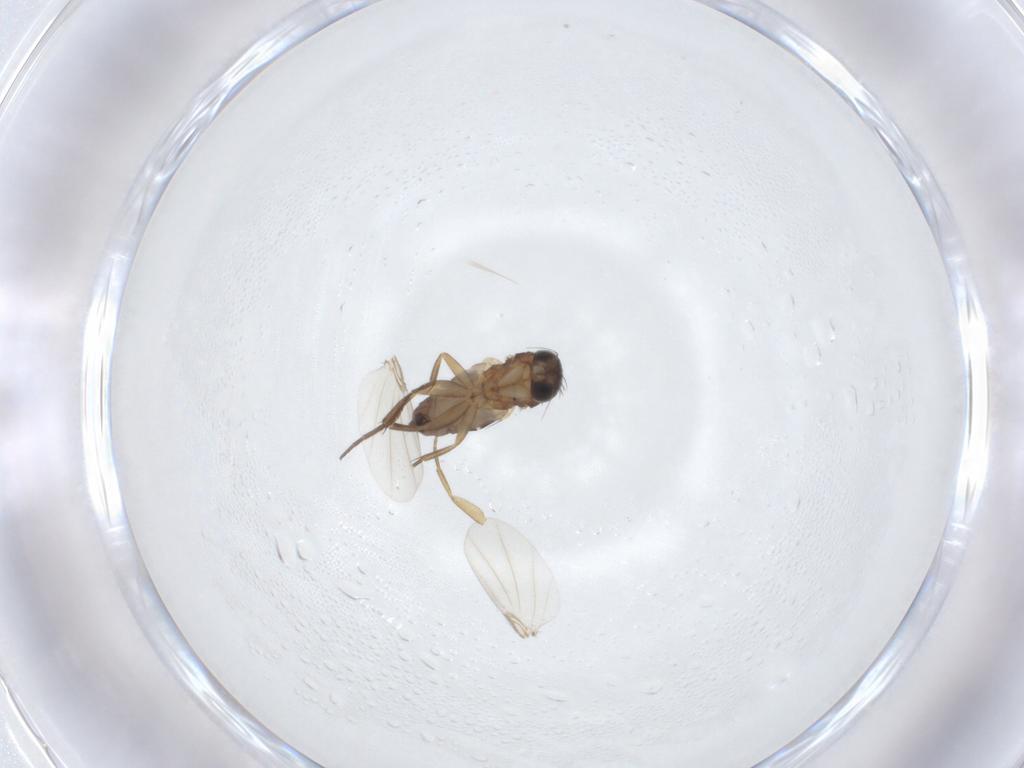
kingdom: Animalia
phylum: Arthropoda
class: Insecta
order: Diptera
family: Phoridae
